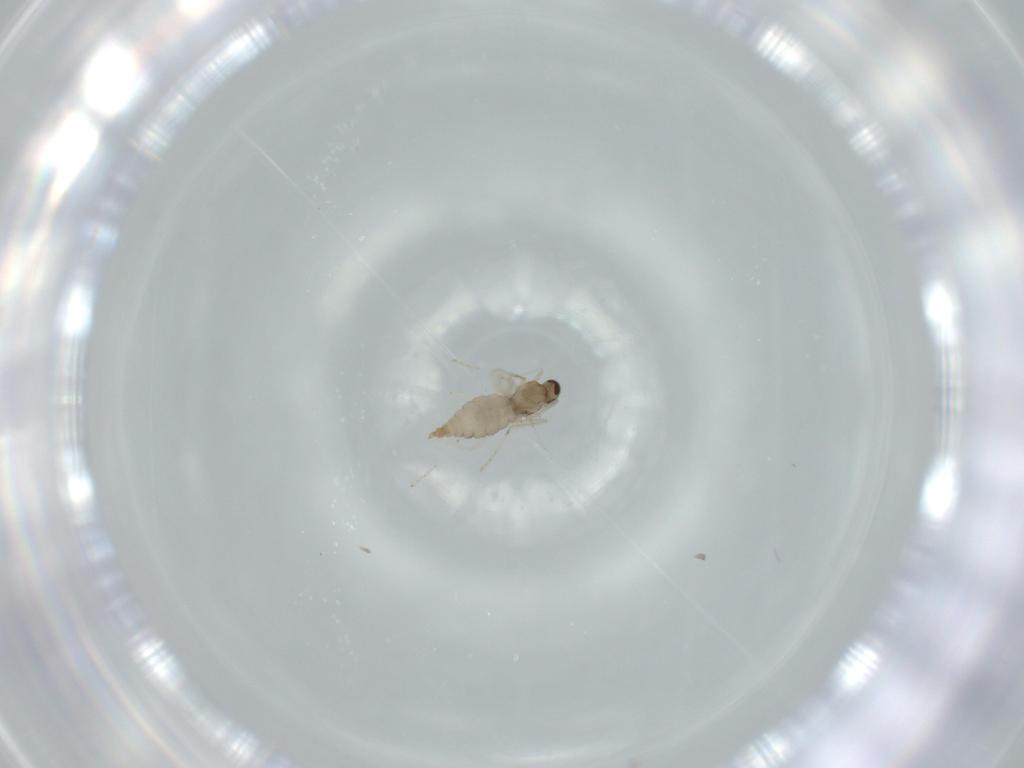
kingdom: Animalia
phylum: Arthropoda
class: Insecta
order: Diptera
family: Cecidomyiidae
